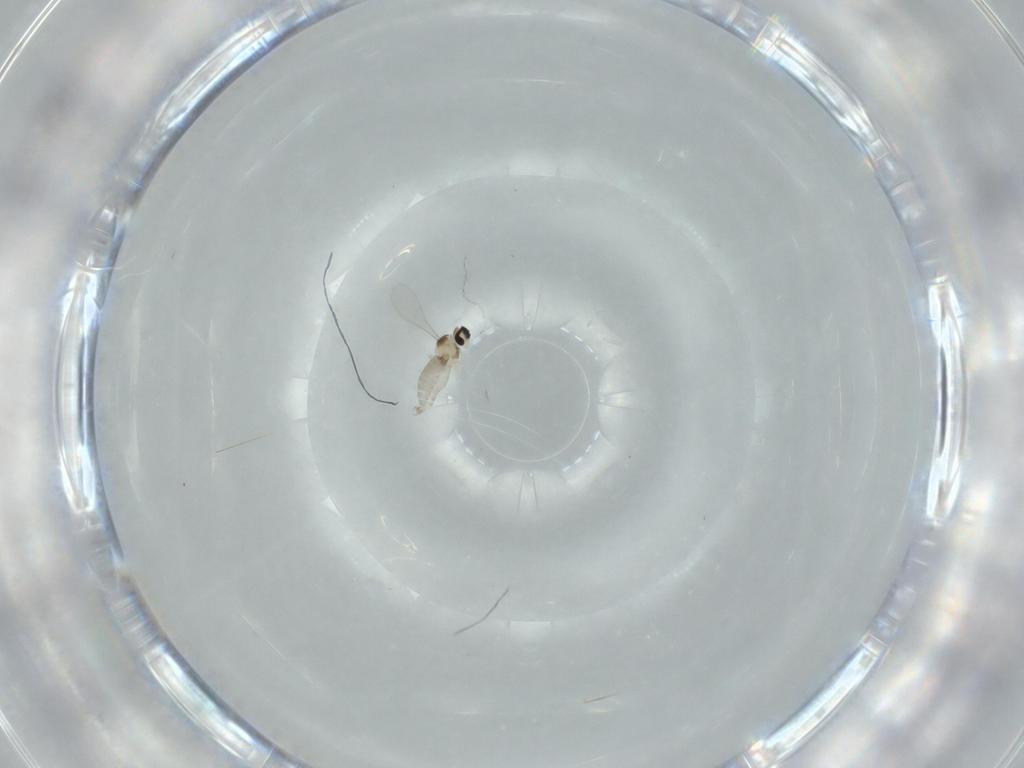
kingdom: Animalia
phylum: Arthropoda
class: Insecta
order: Diptera
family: Cecidomyiidae
